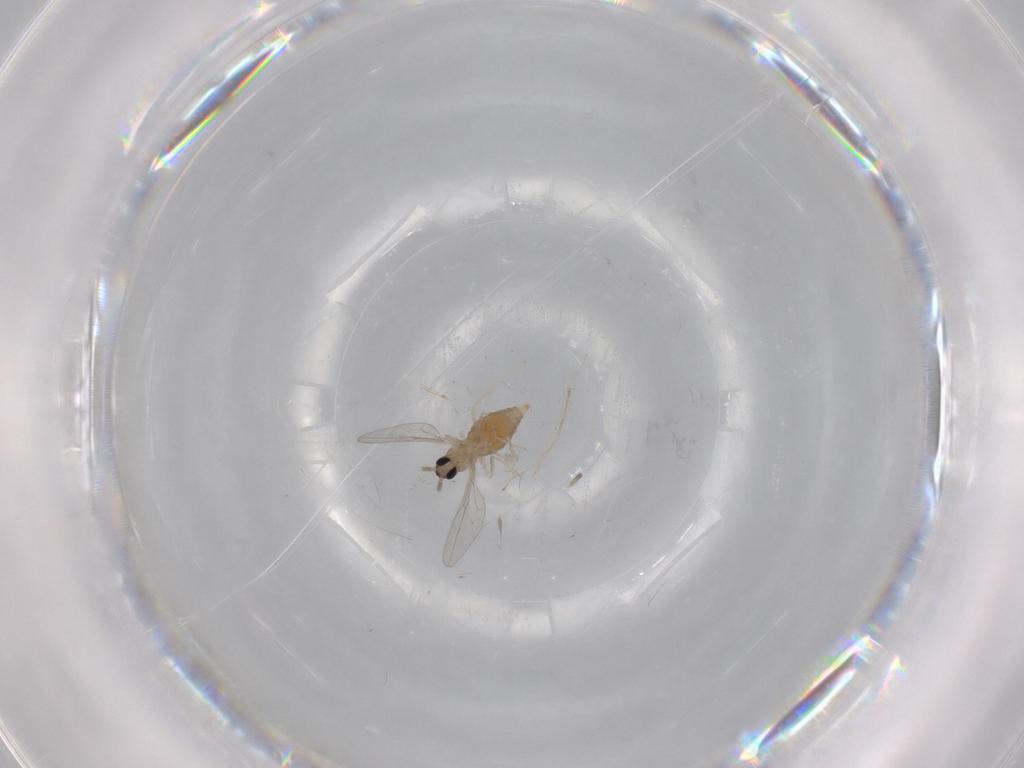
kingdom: Animalia
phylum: Arthropoda
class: Insecta
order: Diptera
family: Cecidomyiidae
